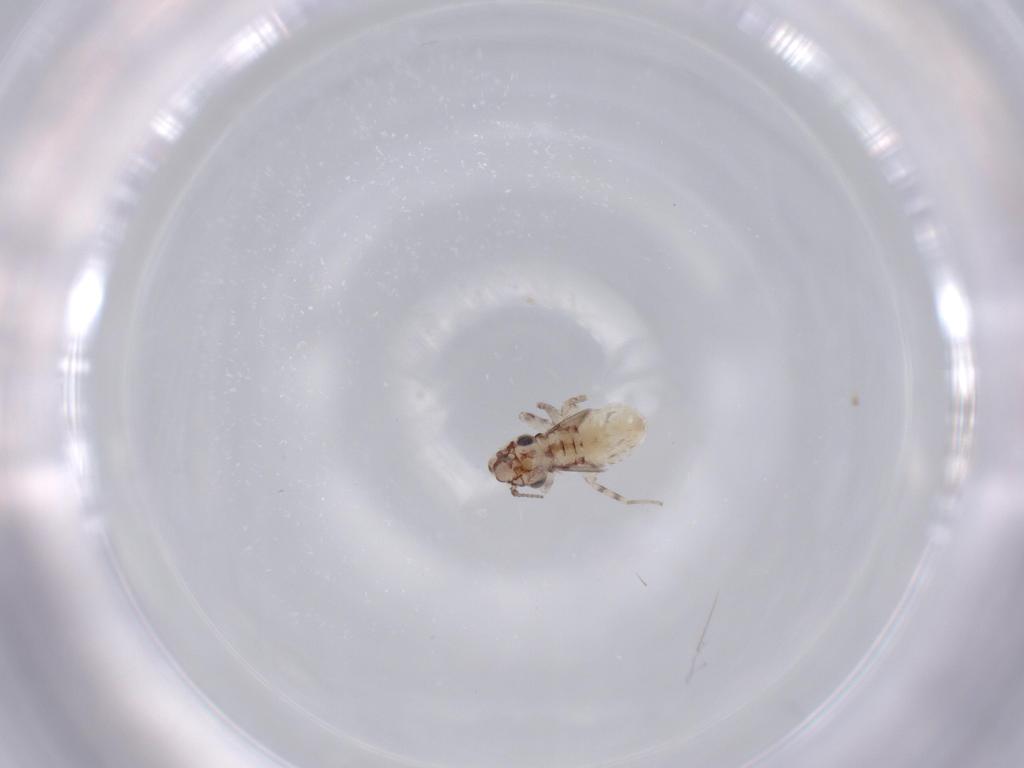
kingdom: Animalia
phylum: Arthropoda
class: Insecta
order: Psocodea
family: Lepidopsocidae
